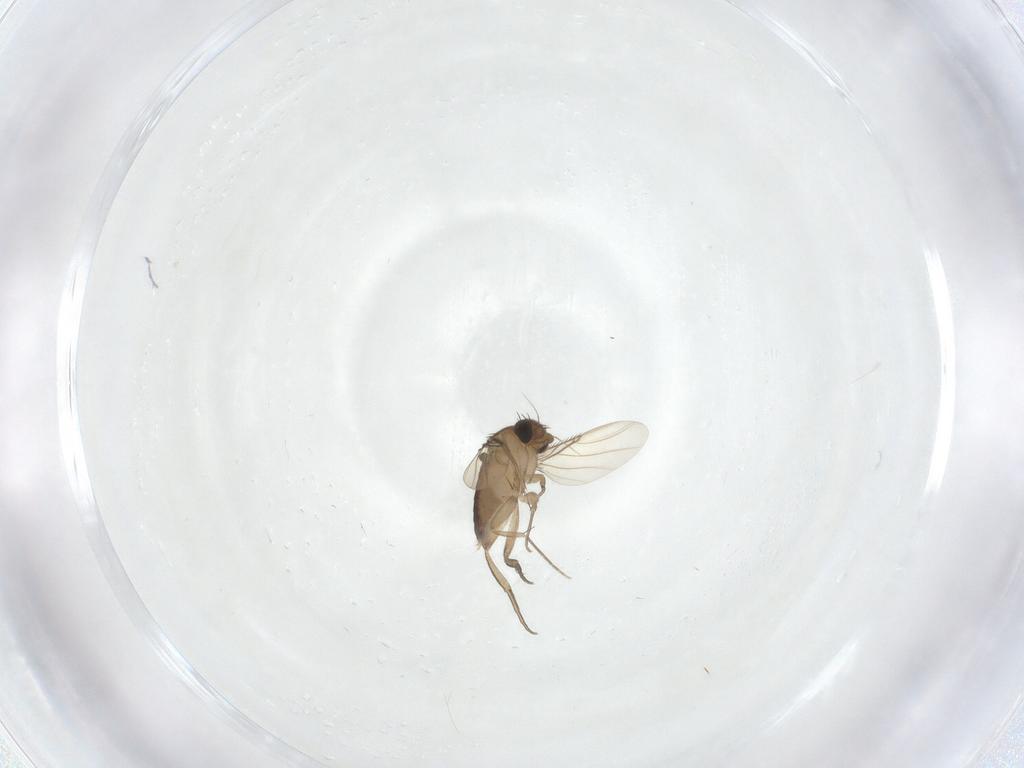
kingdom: Animalia
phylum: Arthropoda
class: Insecta
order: Diptera
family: Phoridae
